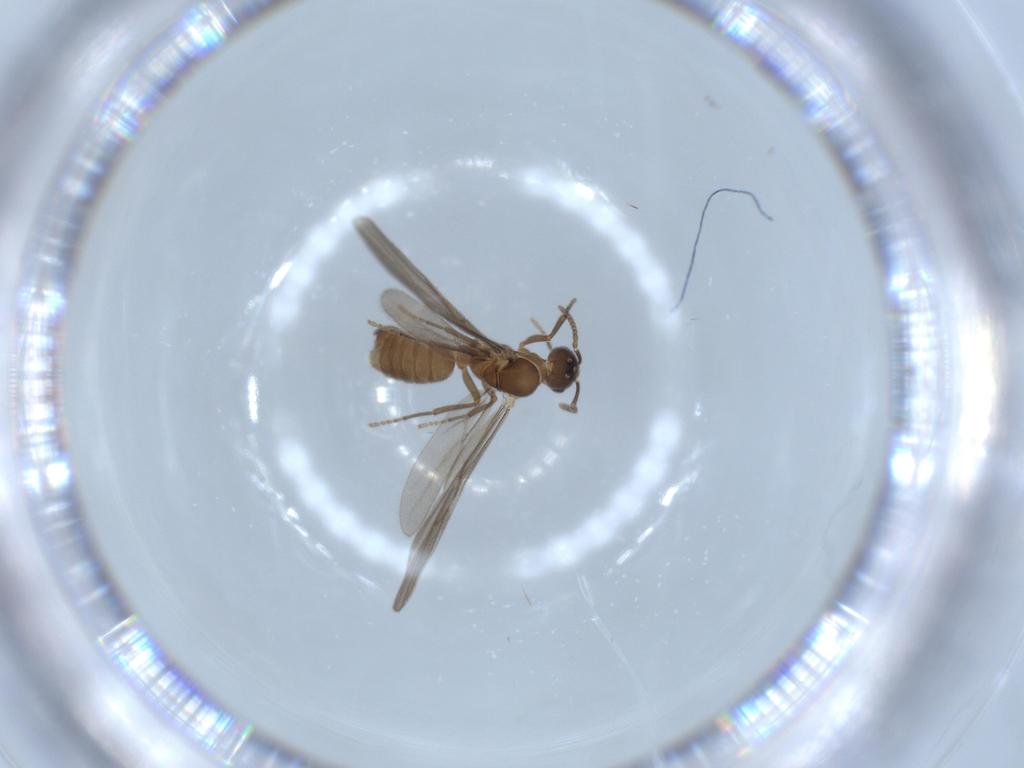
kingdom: Animalia
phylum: Arthropoda
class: Insecta
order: Hymenoptera
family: Formicidae
